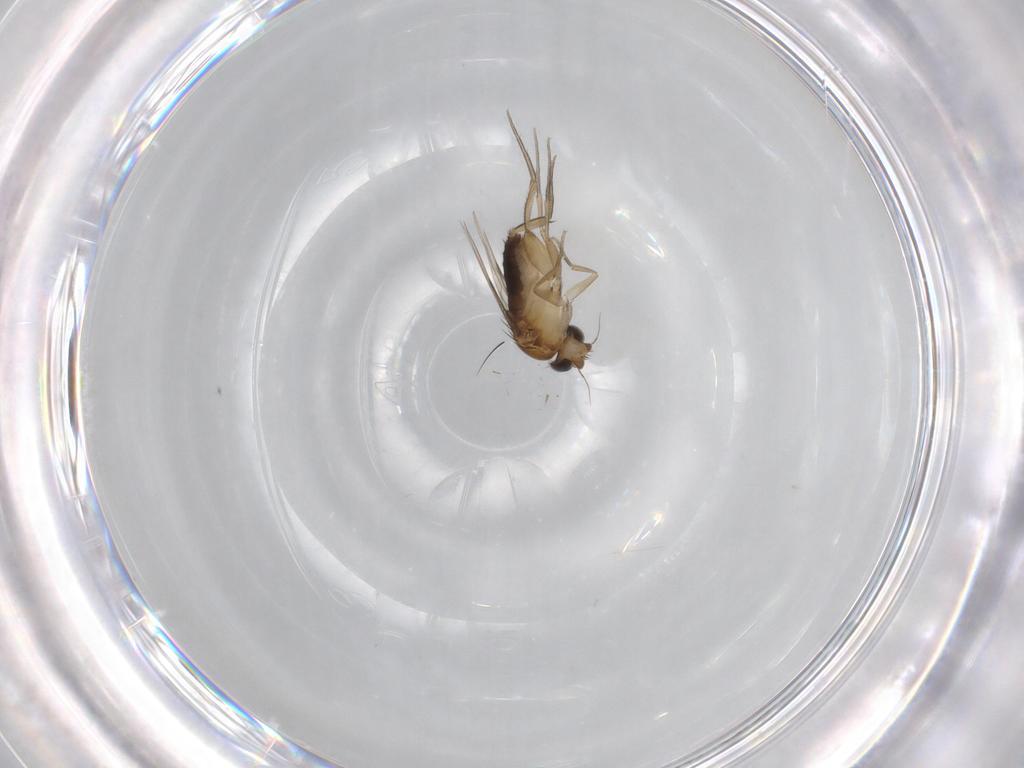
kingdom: Animalia
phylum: Arthropoda
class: Insecta
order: Diptera
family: Phoridae
